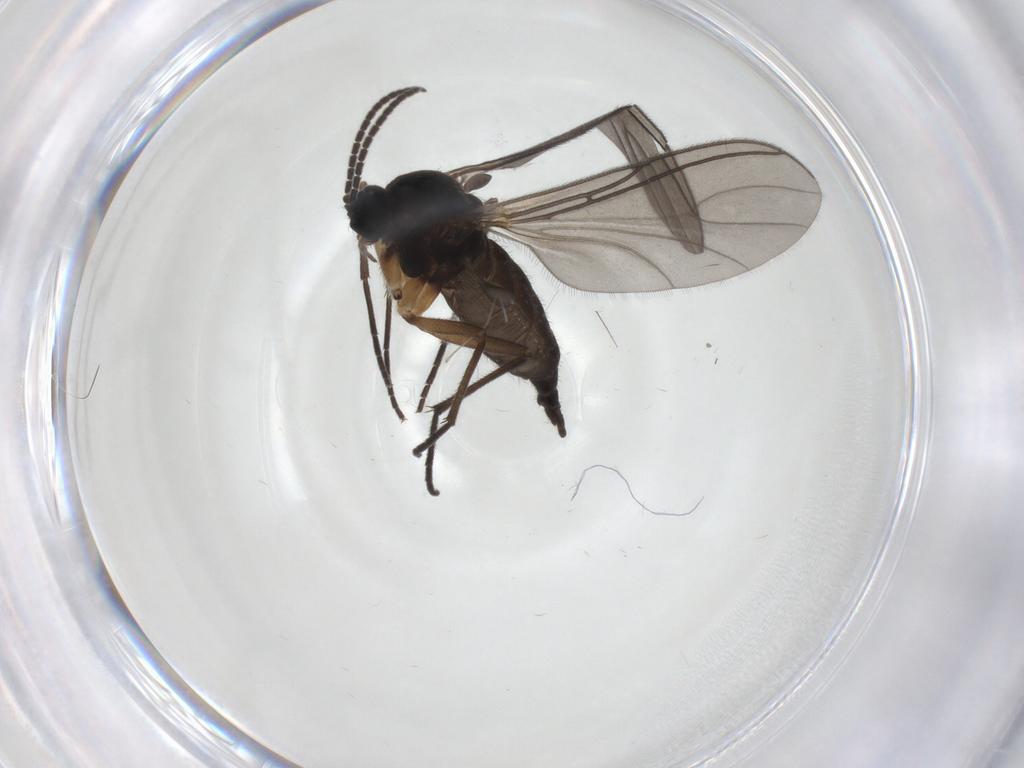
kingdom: Animalia
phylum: Arthropoda
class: Insecta
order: Diptera
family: Sciaridae
